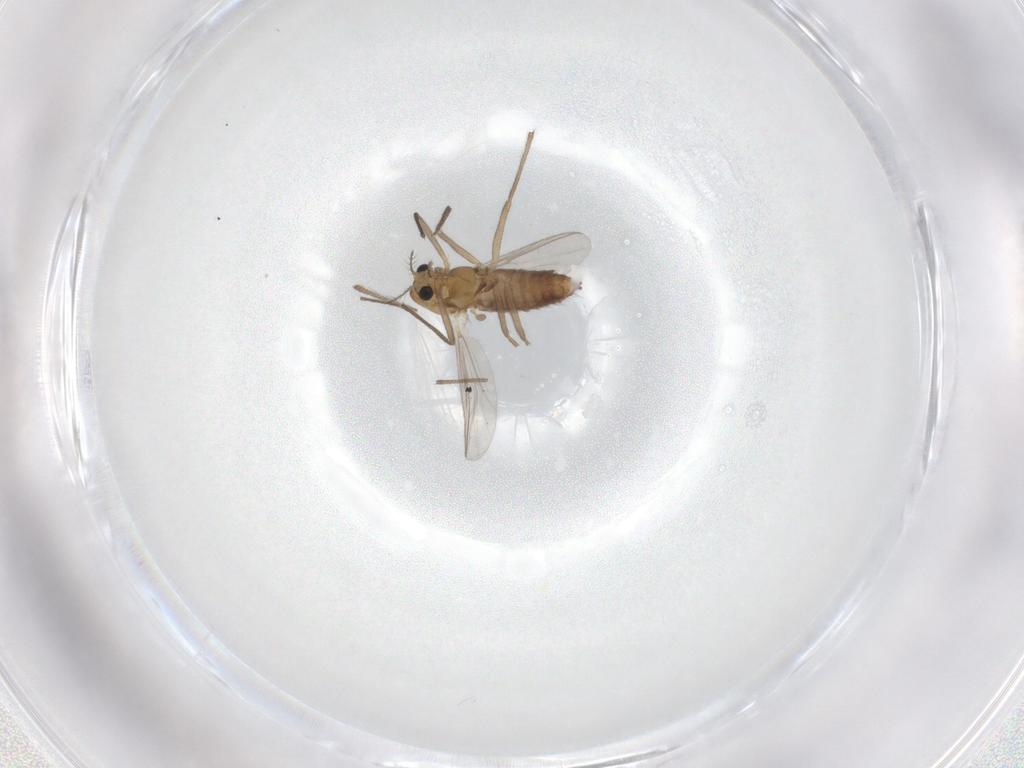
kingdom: Animalia
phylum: Arthropoda
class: Insecta
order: Diptera
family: Chironomidae
